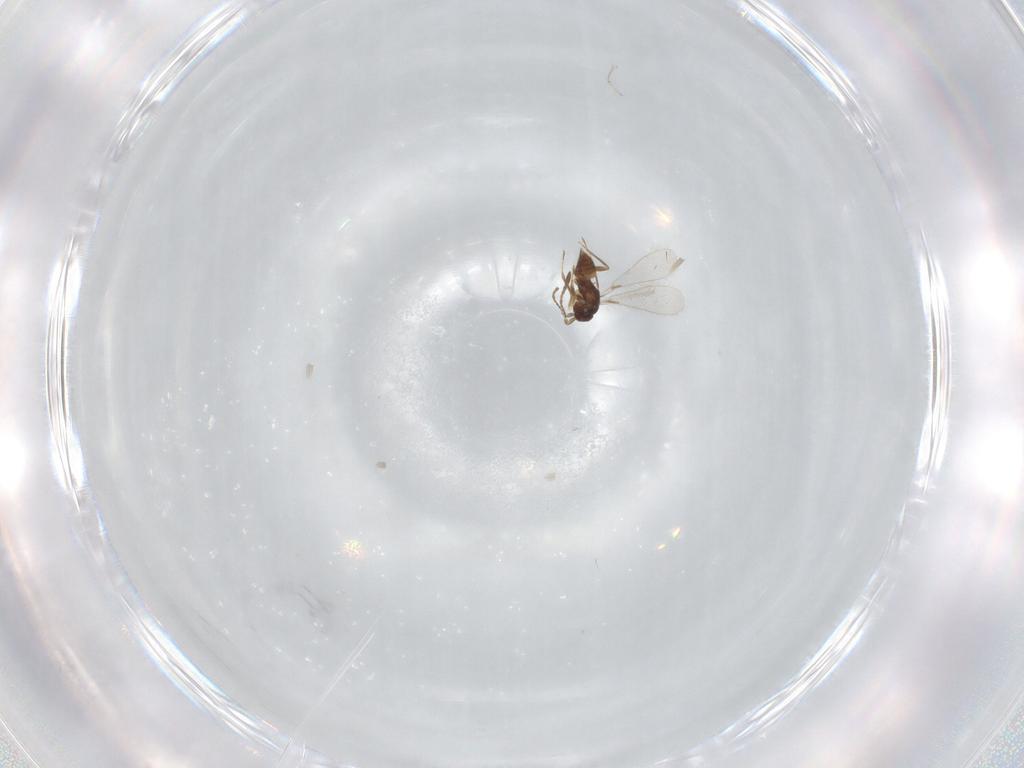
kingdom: Animalia
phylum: Arthropoda
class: Insecta
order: Hymenoptera
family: Mymaridae
